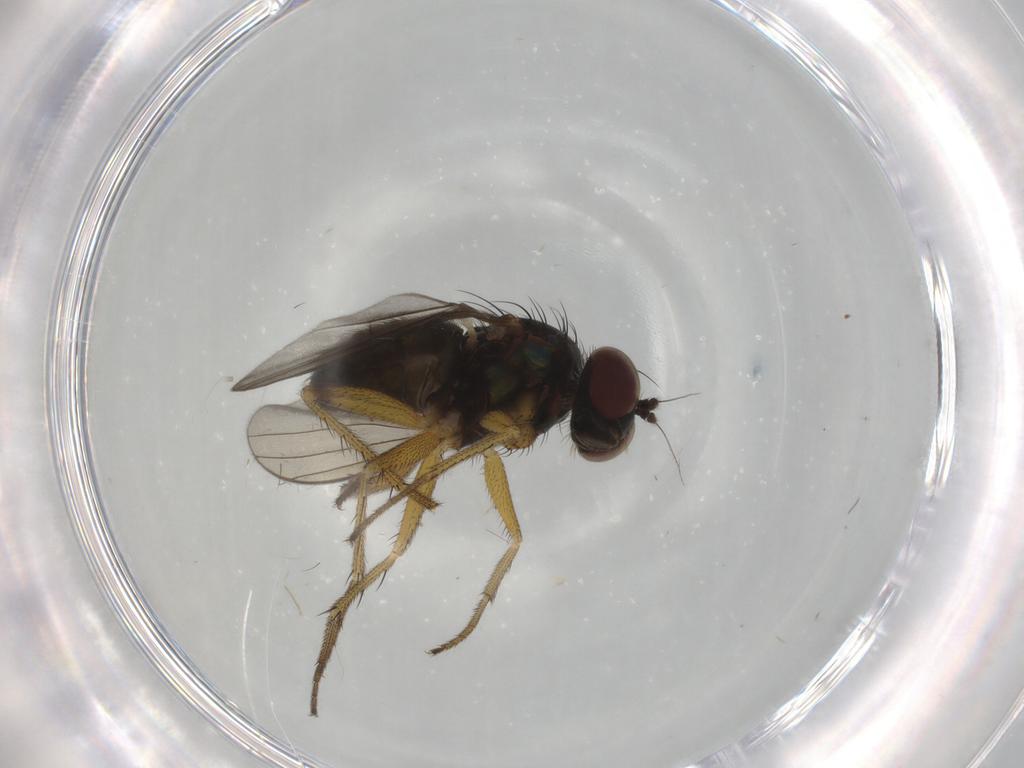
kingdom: Animalia
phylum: Arthropoda
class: Insecta
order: Diptera
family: Dolichopodidae
